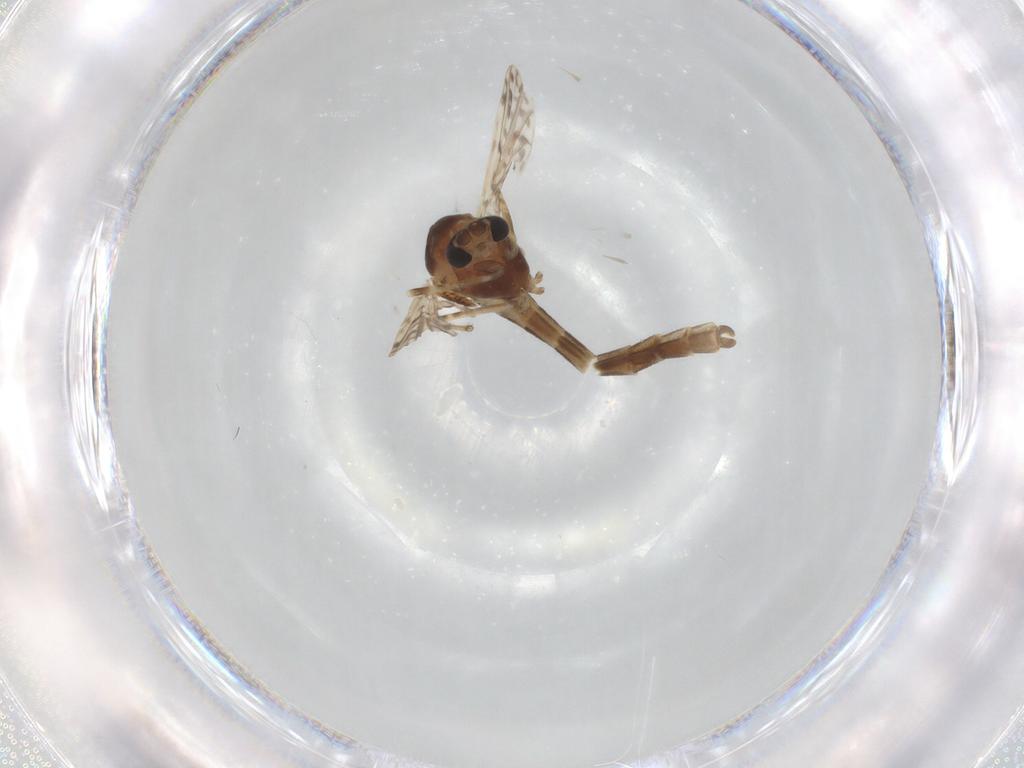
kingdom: Animalia
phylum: Arthropoda
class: Insecta
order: Diptera
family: Chironomidae
